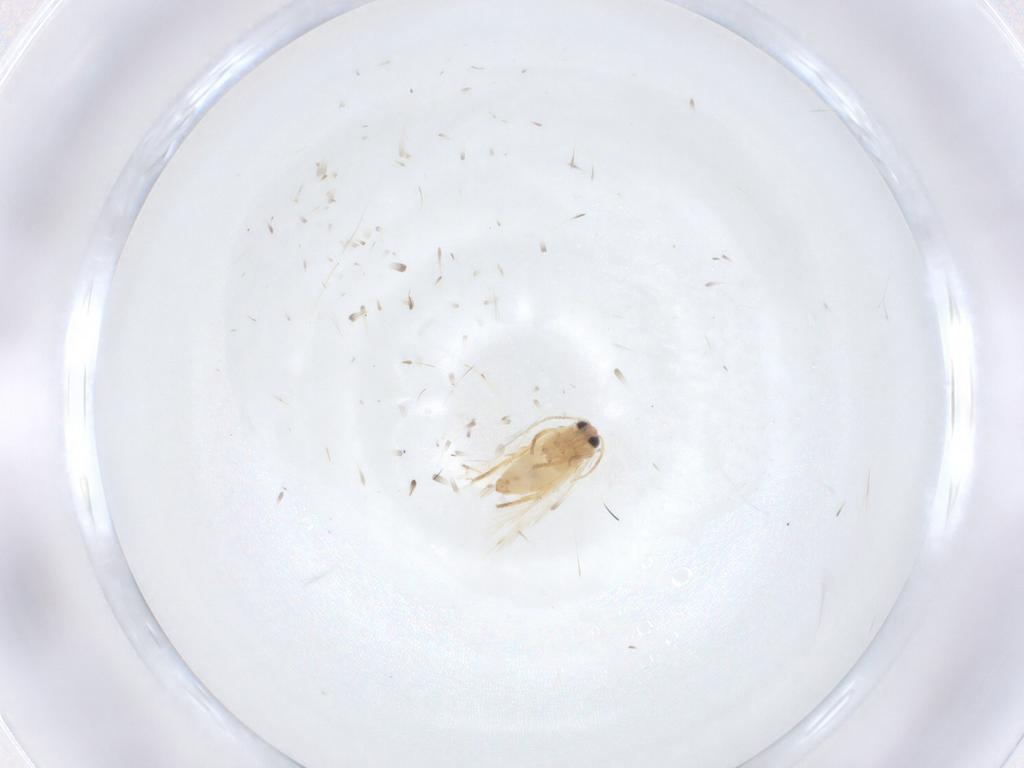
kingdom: Animalia
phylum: Arthropoda
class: Insecta
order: Lepidoptera
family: Crambidae
